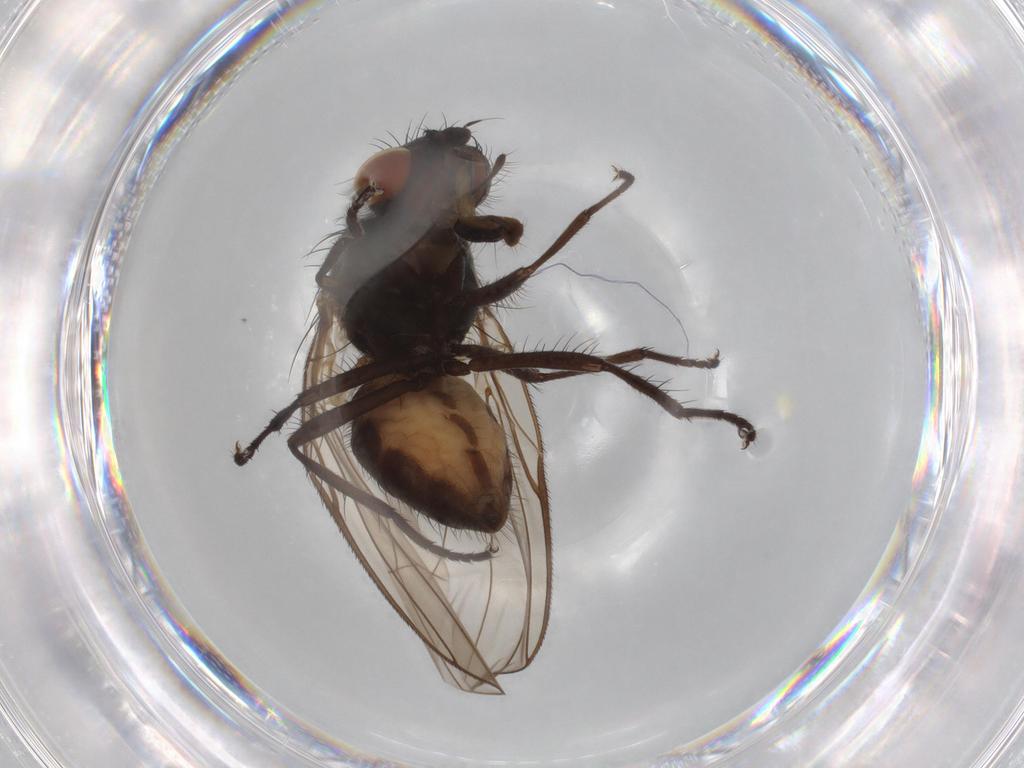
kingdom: Animalia
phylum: Arthropoda
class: Insecta
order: Diptera
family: Anthomyiidae
